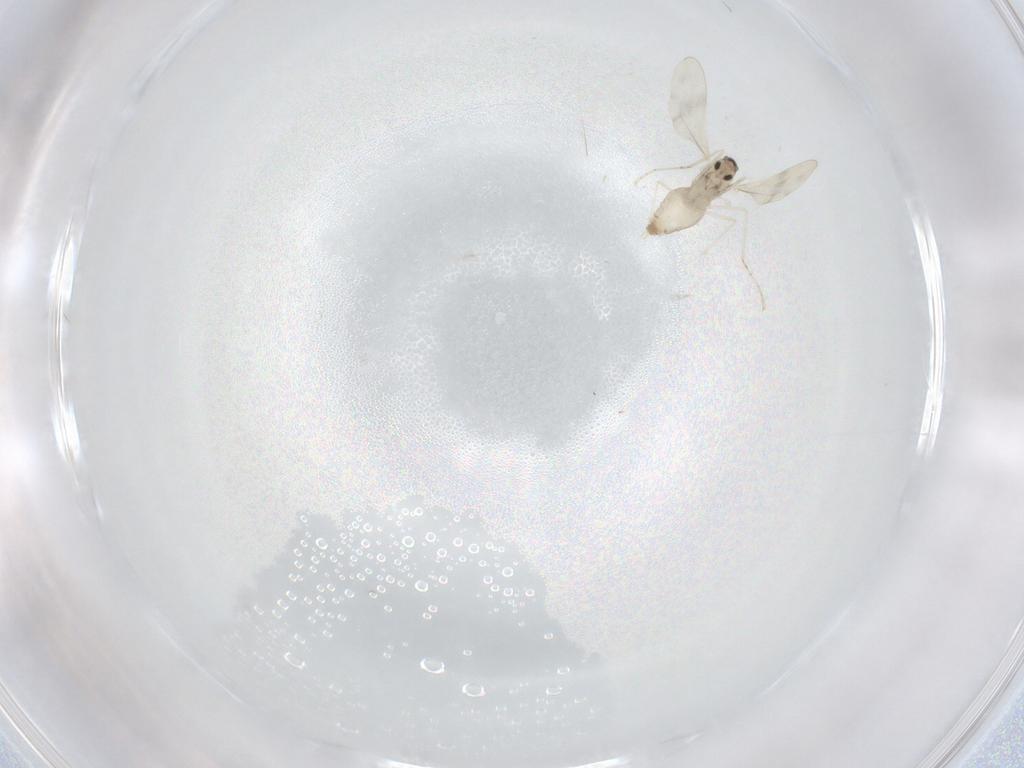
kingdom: Animalia
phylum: Arthropoda
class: Insecta
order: Diptera
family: Cecidomyiidae
